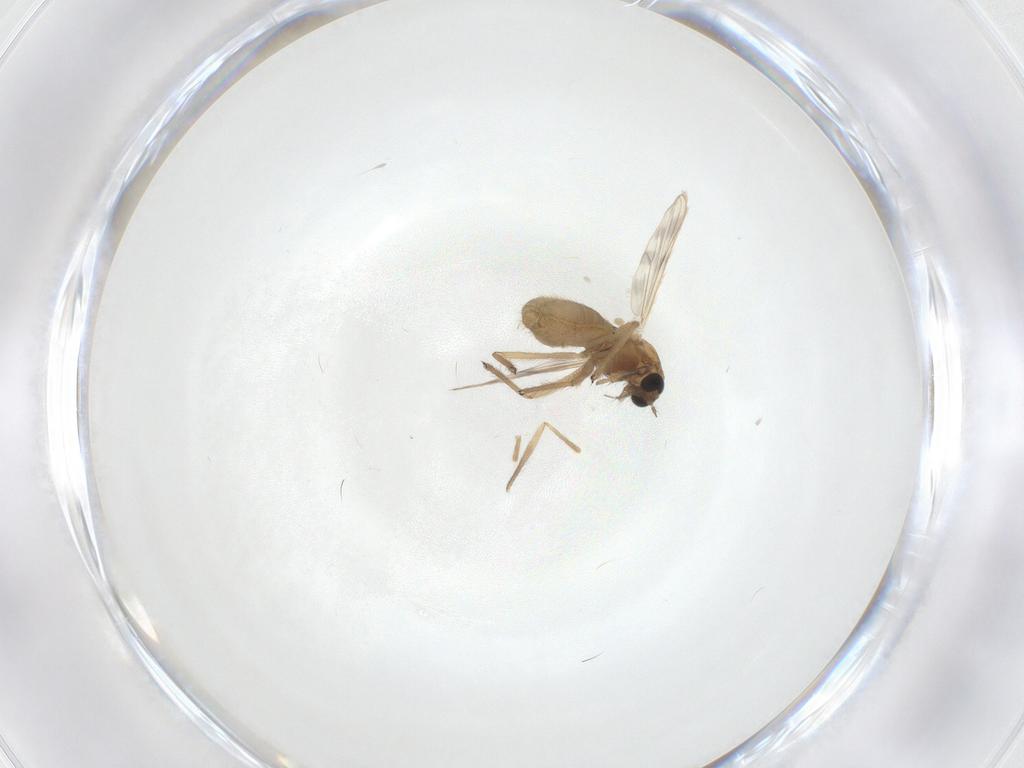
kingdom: Animalia
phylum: Arthropoda
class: Insecta
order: Diptera
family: Chironomidae
